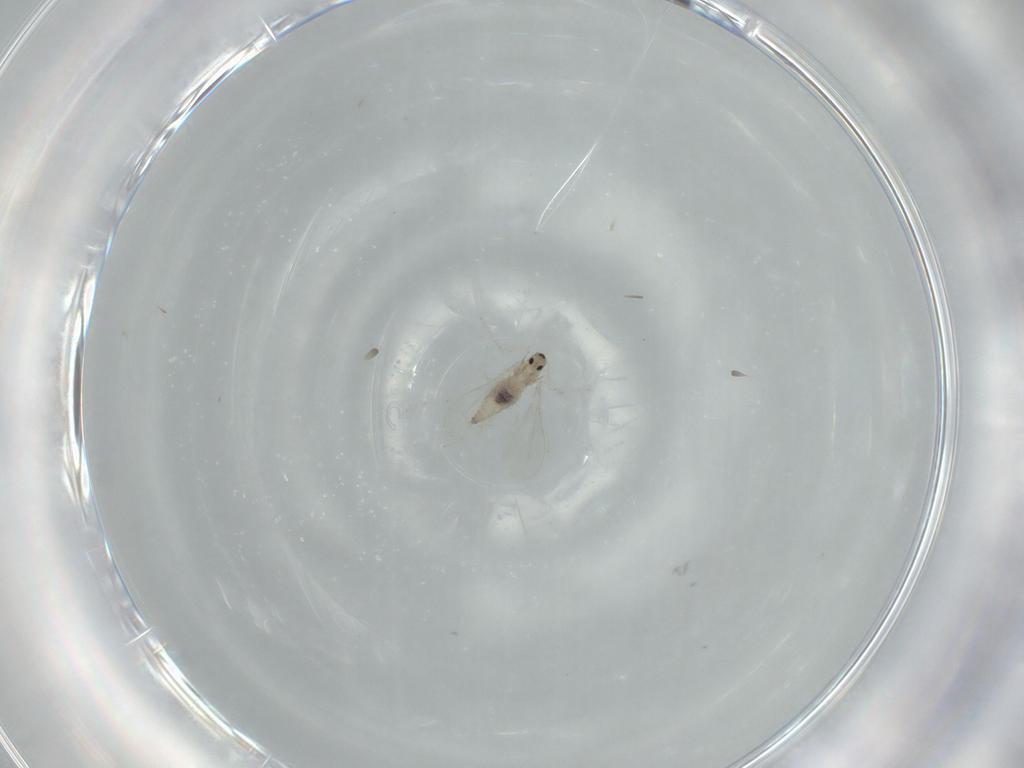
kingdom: Animalia
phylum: Arthropoda
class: Insecta
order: Diptera
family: Cecidomyiidae
